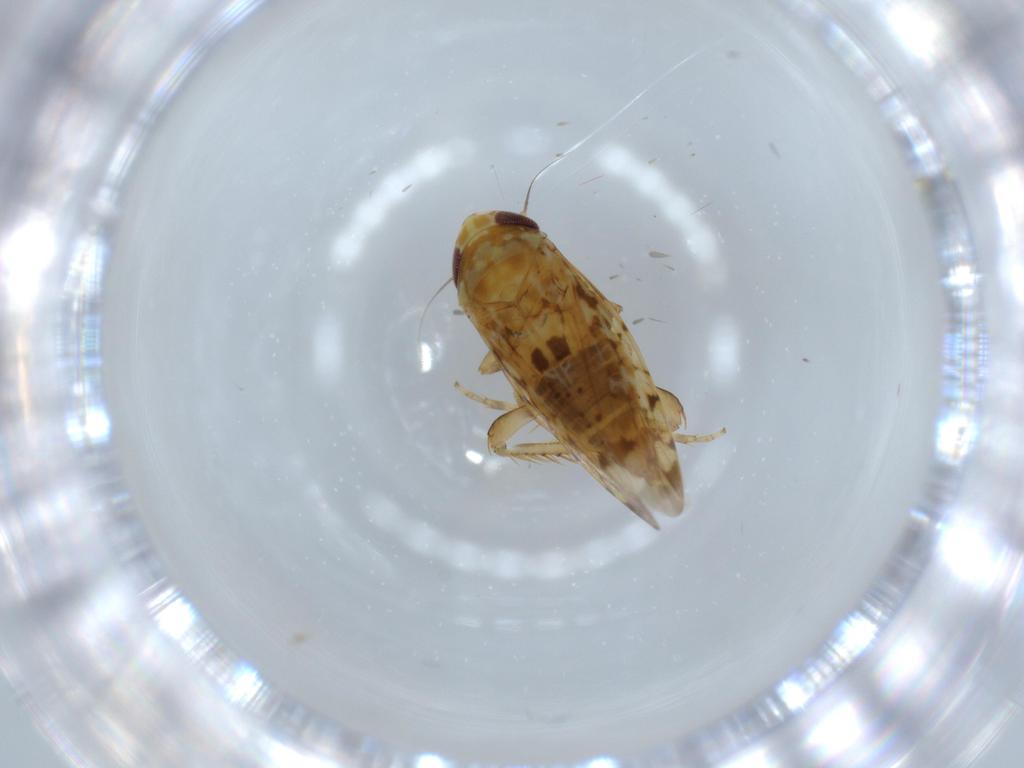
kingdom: Animalia
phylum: Arthropoda
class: Insecta
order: Hemiptera
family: Cicadellidae
